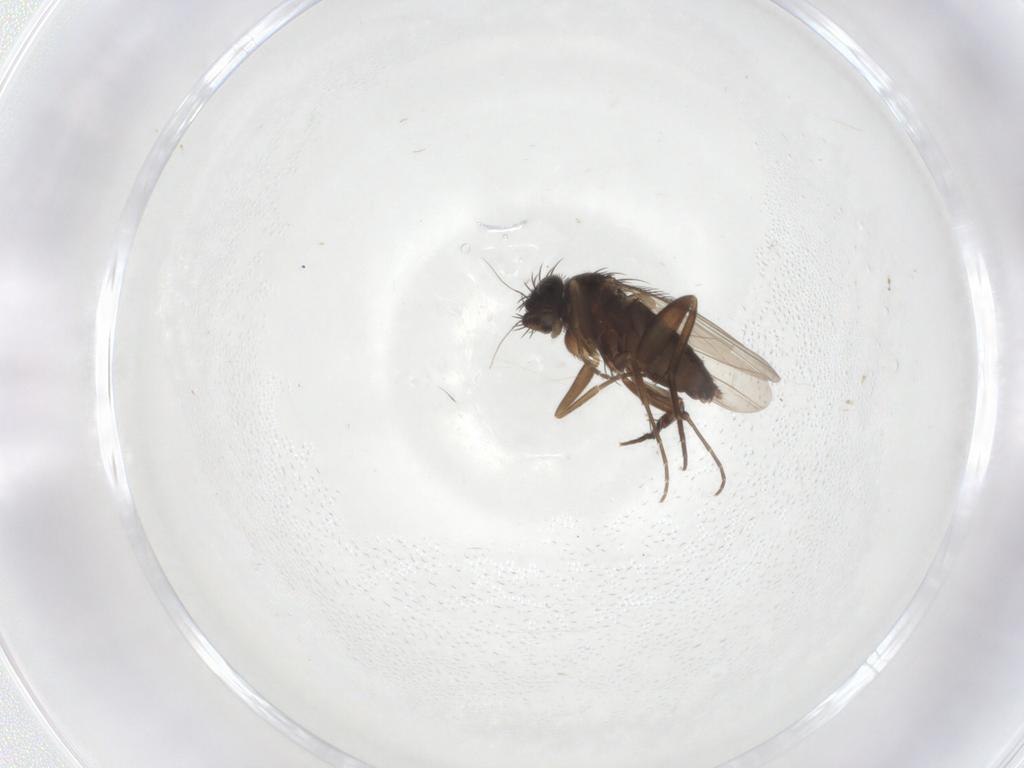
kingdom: Animalia
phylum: Arthropoda
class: Insecta
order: Diptera
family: Phoridae
